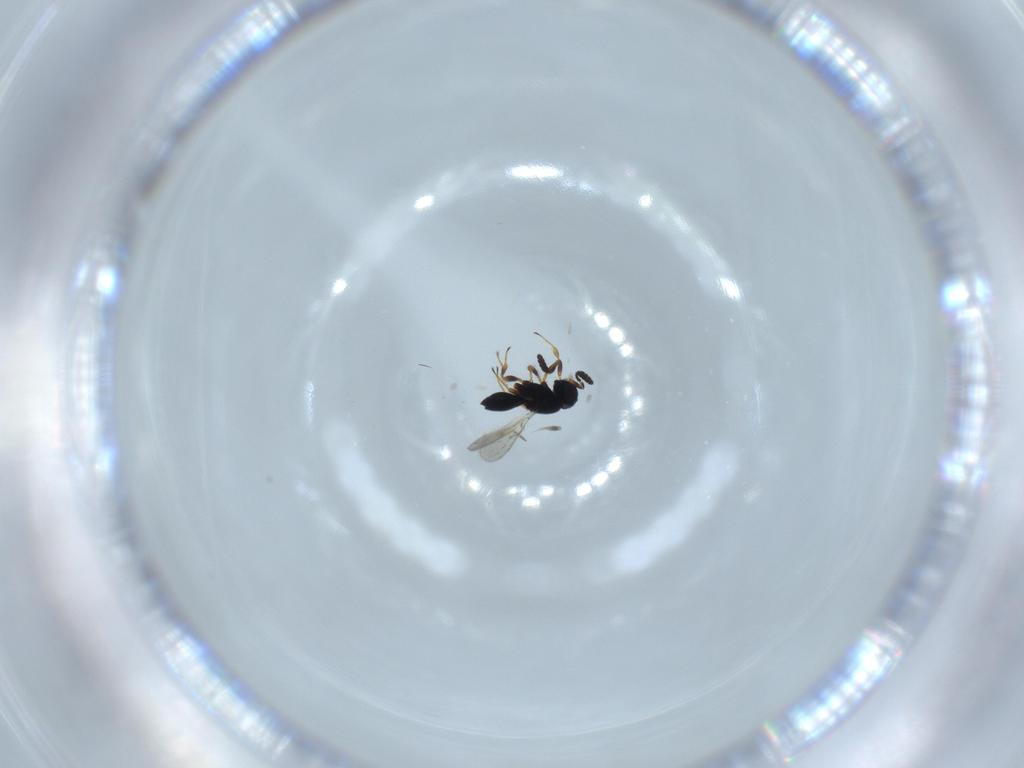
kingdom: Animalia
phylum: Arthropoda
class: Insecta
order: Hymenoptera
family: Scelionidae
